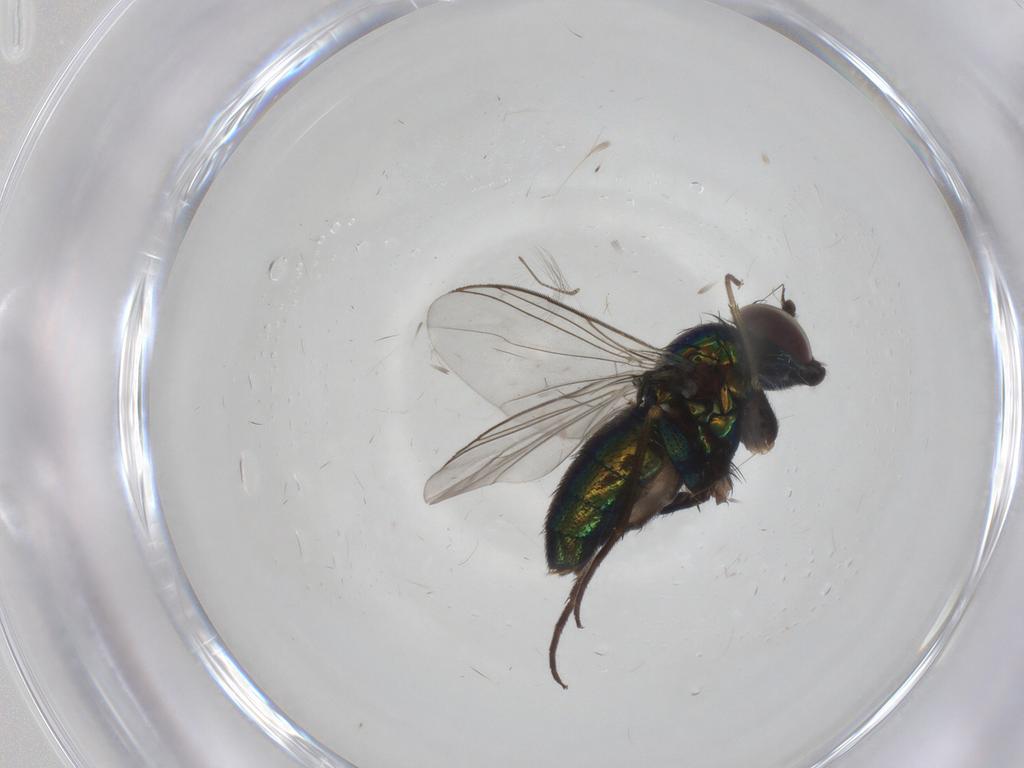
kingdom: Animalia
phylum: Arthropoda
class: Insecta
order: Diptera
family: Dolichopodidae
